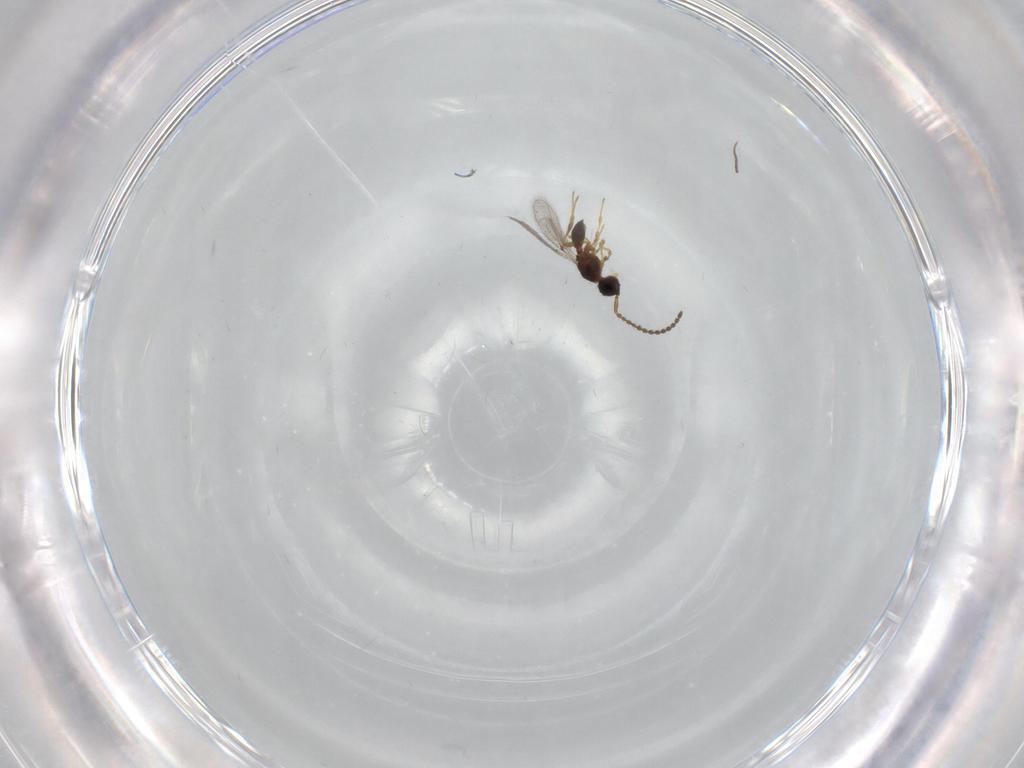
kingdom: Animalia
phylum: Arthropoda
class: Insecta
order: Hymenoptera
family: Diapriidae
